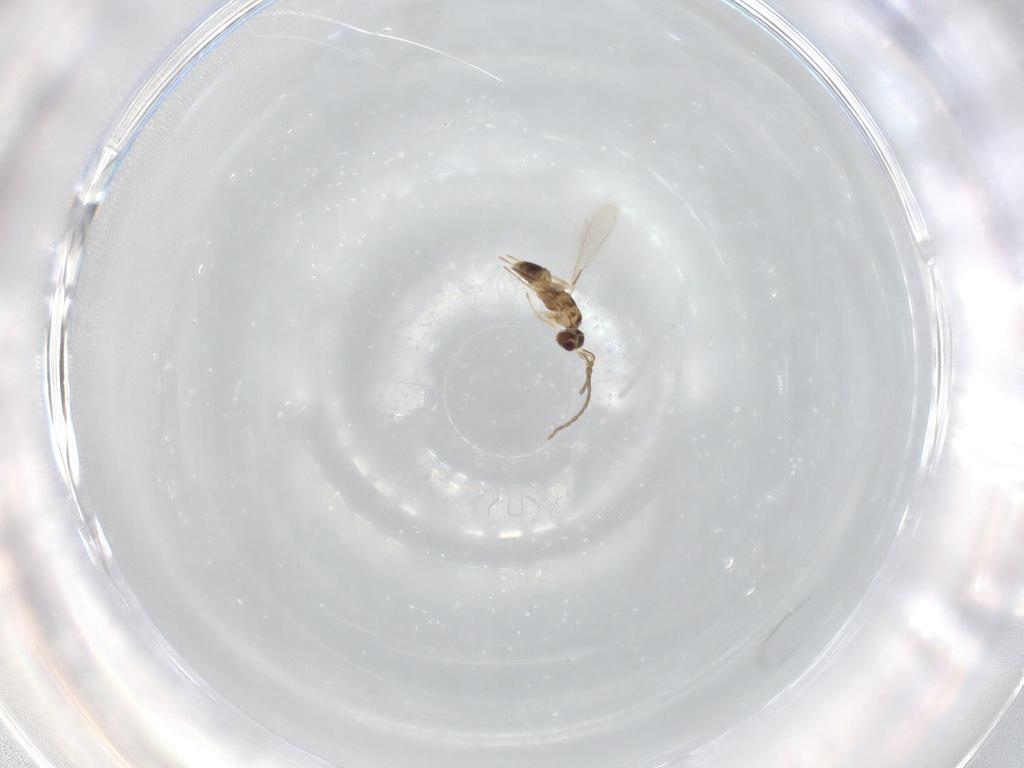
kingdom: Animalia
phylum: Arthropoda
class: Insecta
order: Hymenoptera
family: Mymaridae
